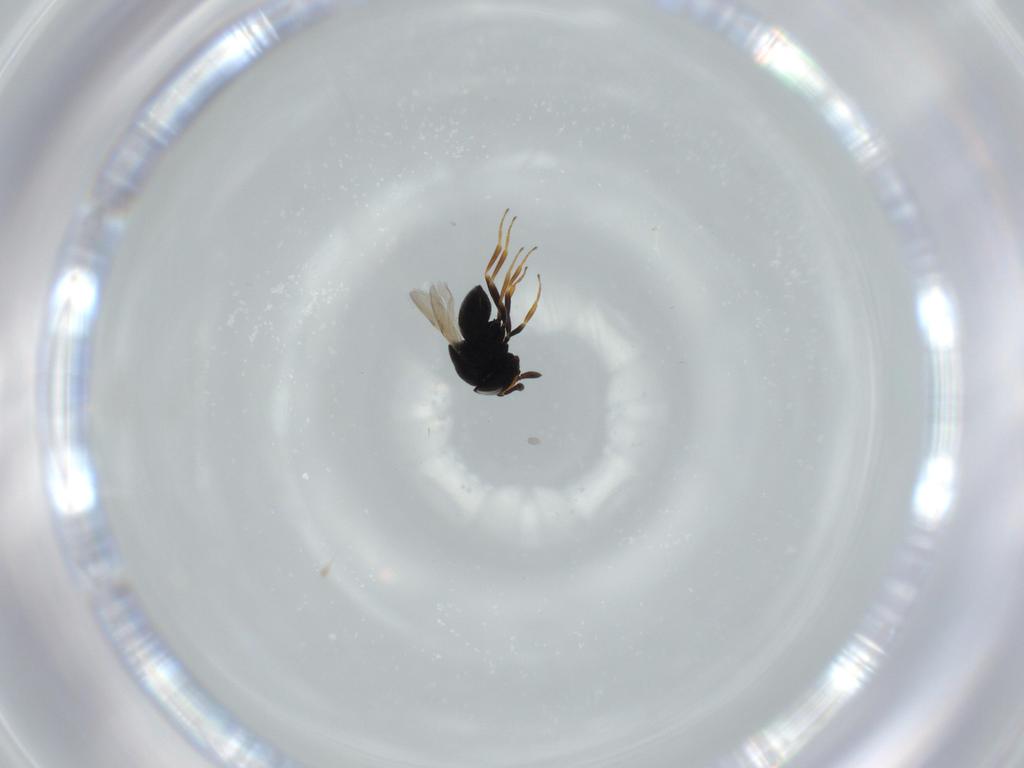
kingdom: Animalia
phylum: Arthropoda
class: Insecta
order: Hymenoptera
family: Scelionidae
